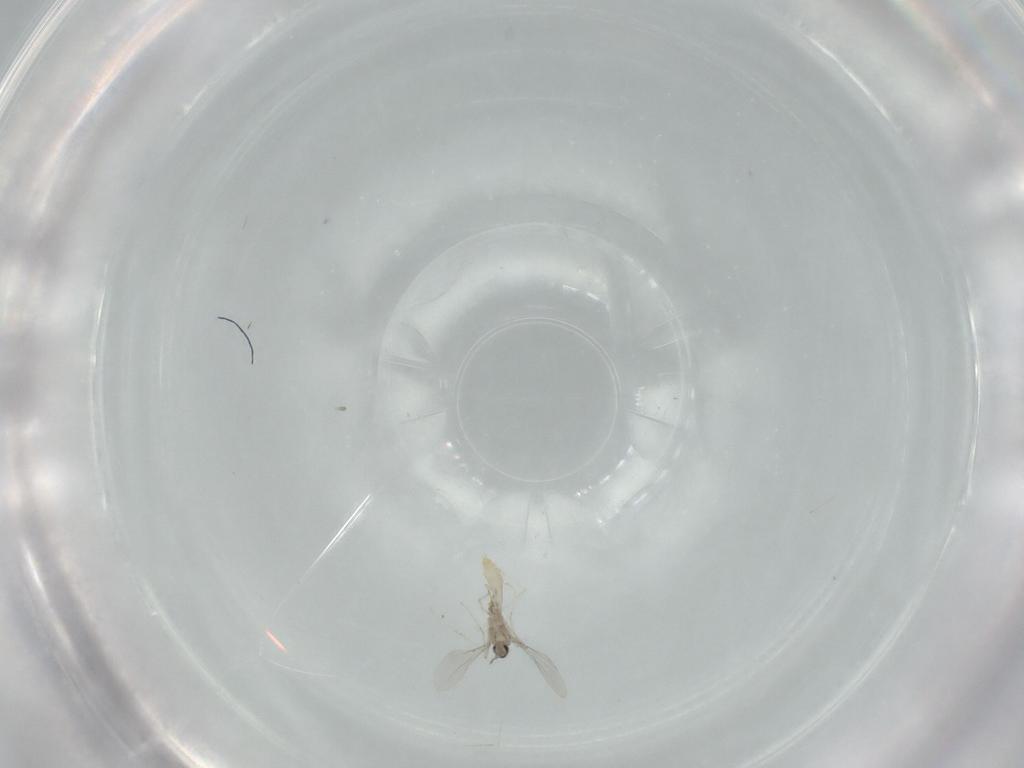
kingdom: Animalia
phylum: Arthropoda
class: Insecta
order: Diptera
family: Sciaridae
